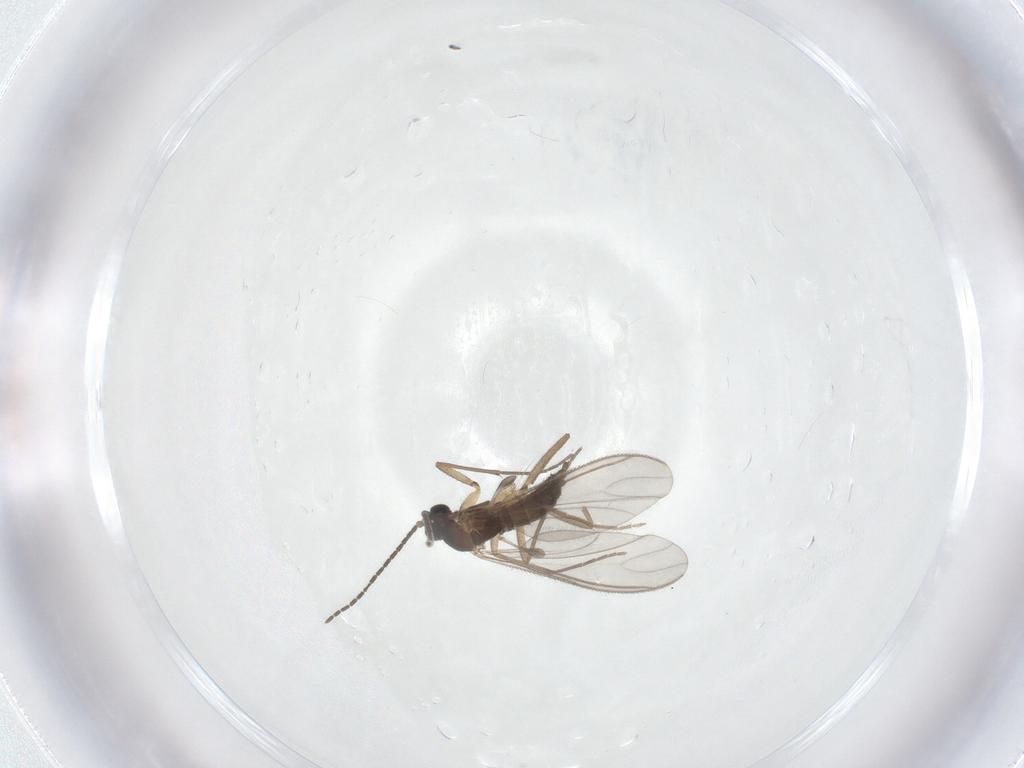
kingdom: Animalia
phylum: Arthropoda
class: Insecta
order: Diptera
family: Sciaridae
